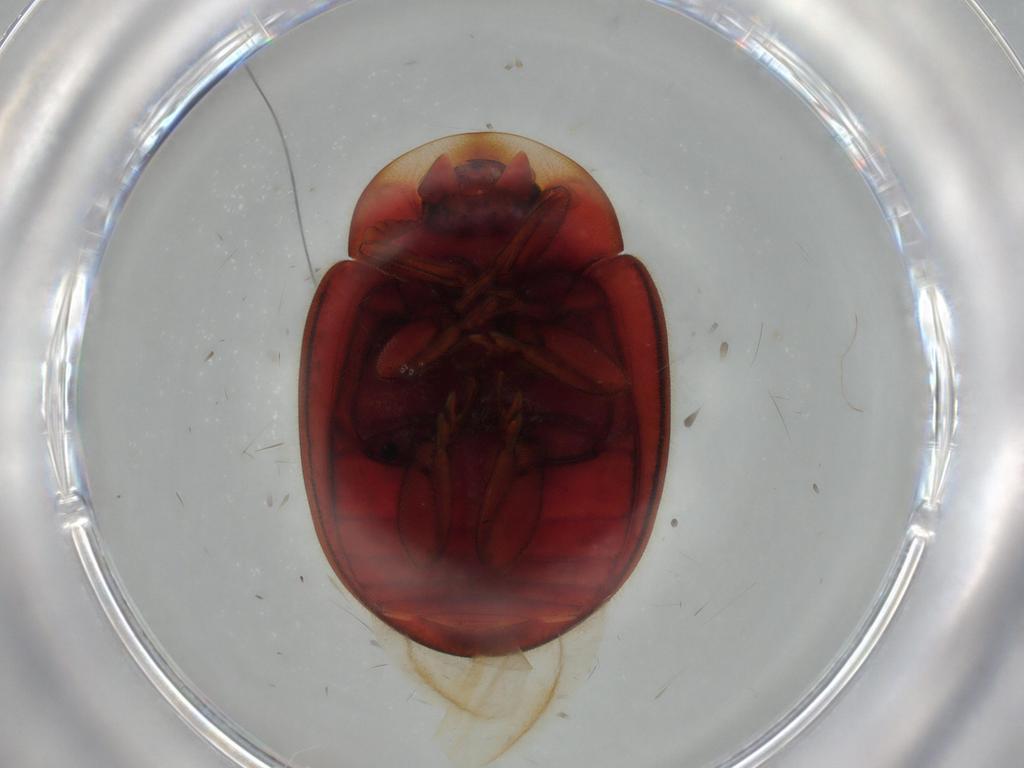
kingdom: Animalia
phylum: Arthropoda
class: Insecta
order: Coleoptera
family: Coccinellidae
